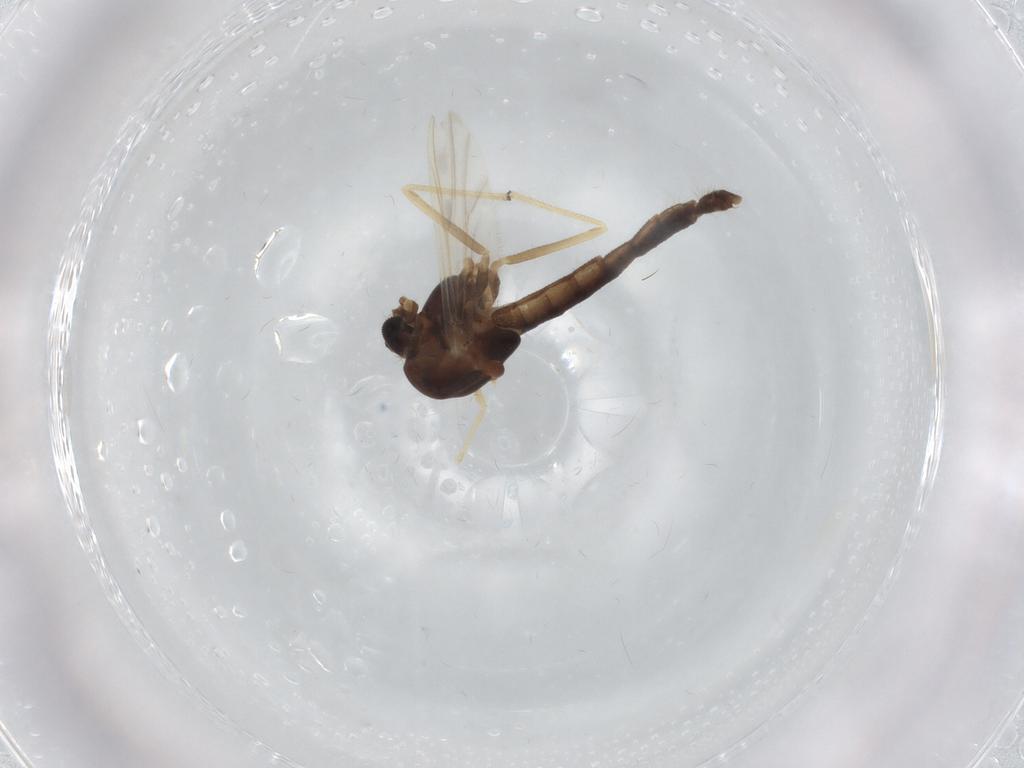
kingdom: Animalia
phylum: Arthropoda
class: Insecta
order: Diptera
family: Chironomidae
